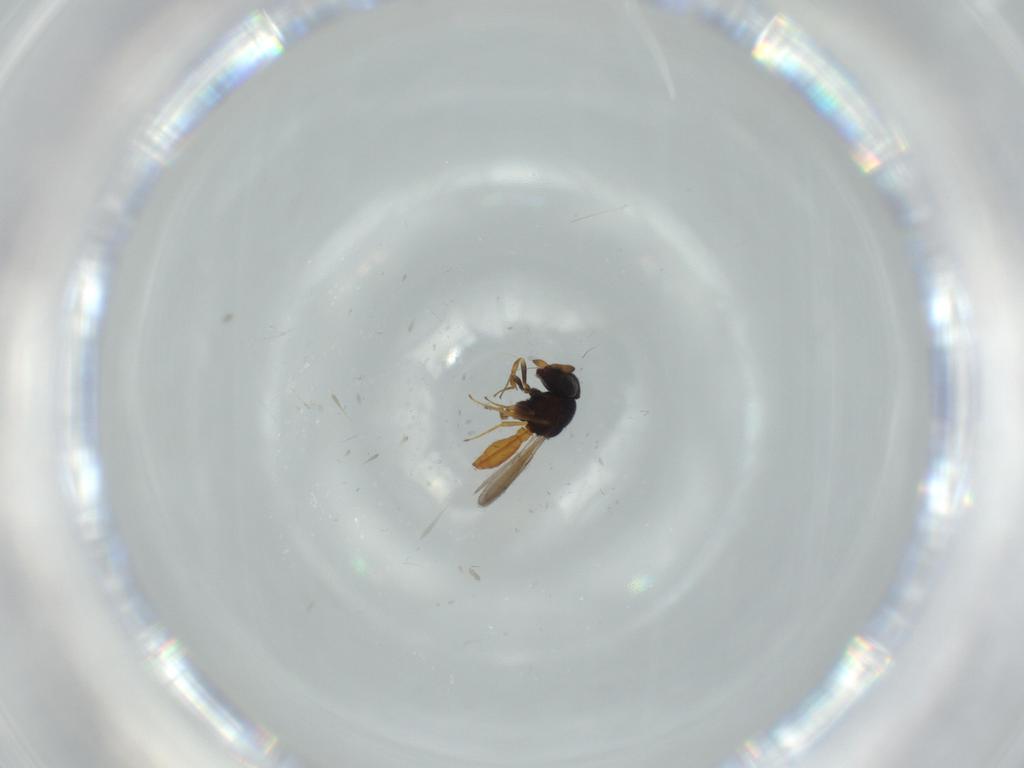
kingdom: Animalia
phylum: Arthropoda
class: Insecta
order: Hymenoptera
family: Scelionidae
